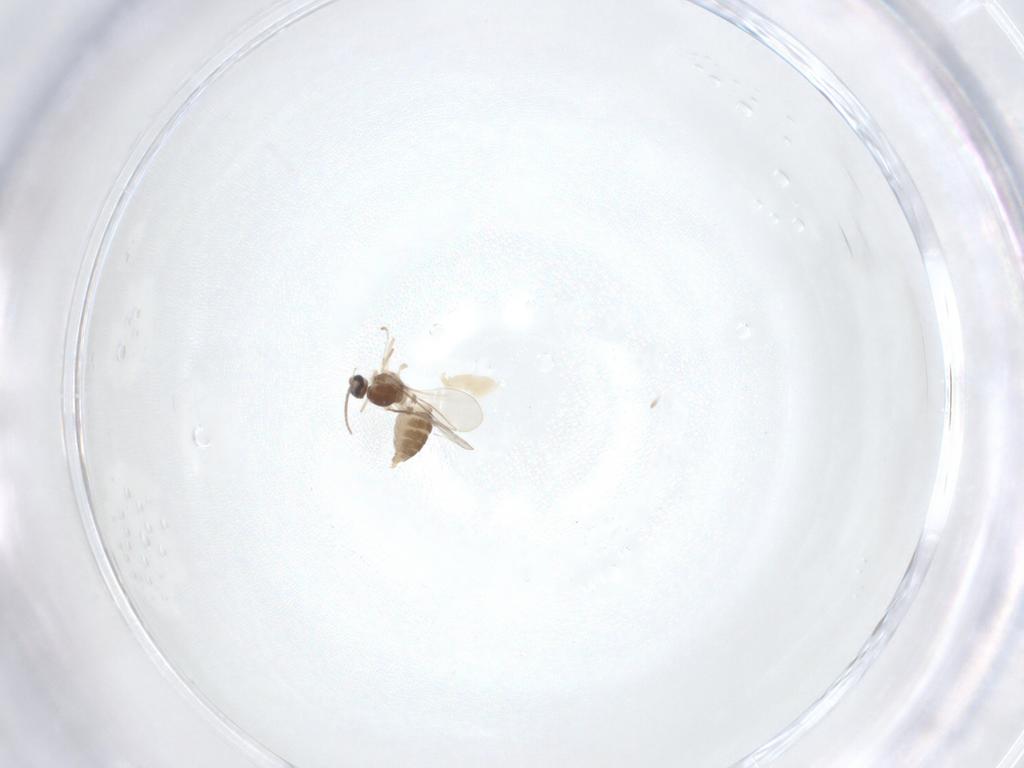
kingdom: Animalia
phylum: Arthropoda
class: Insecta
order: Diptera
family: Cecidomyiidae
